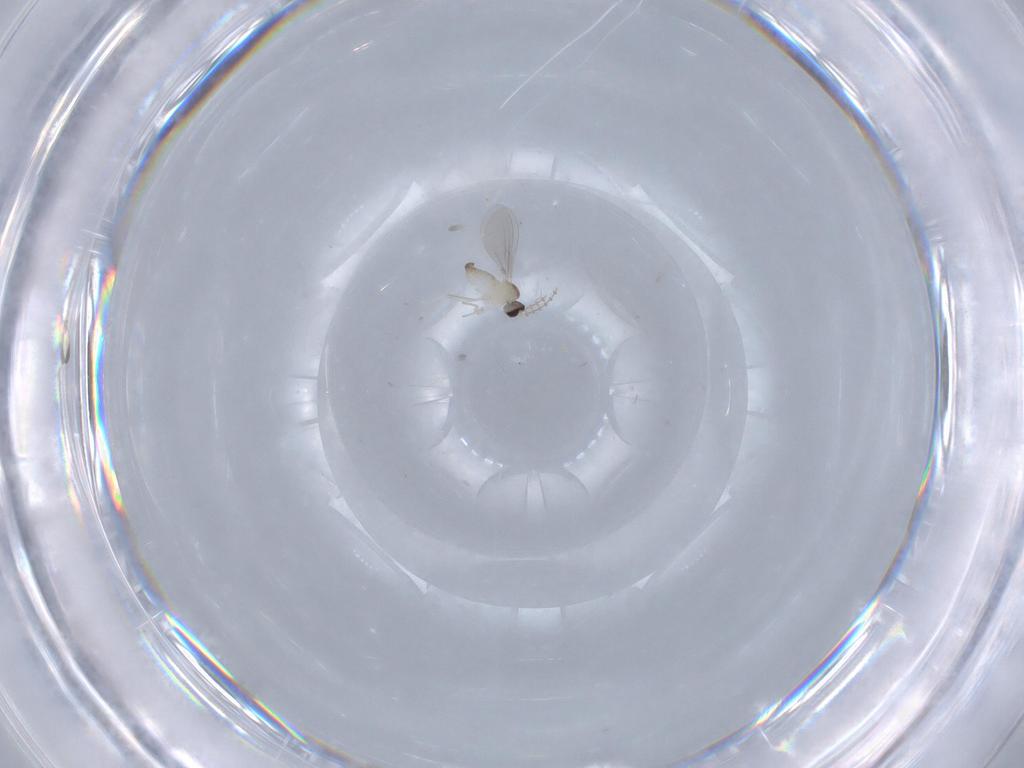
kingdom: Animalia
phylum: Arthropoda
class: Insecta
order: Diptera
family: Cecidomyiidae
